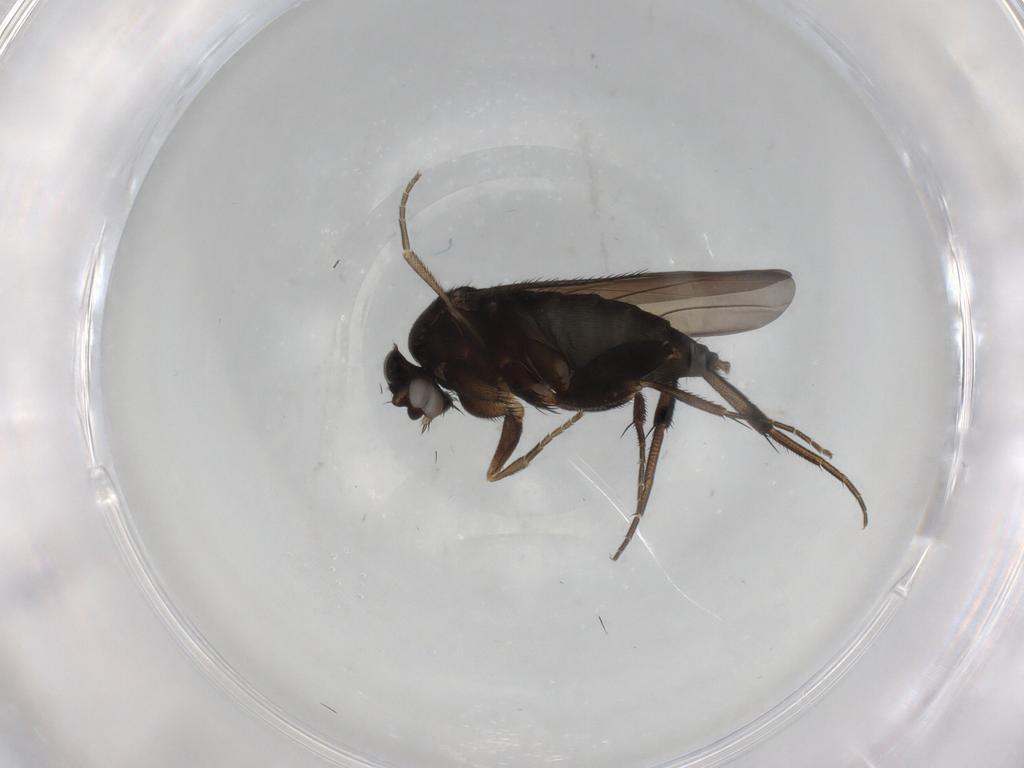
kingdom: Animalia
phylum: Arthropoda
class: Insecta
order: Diptera
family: Phoridae
